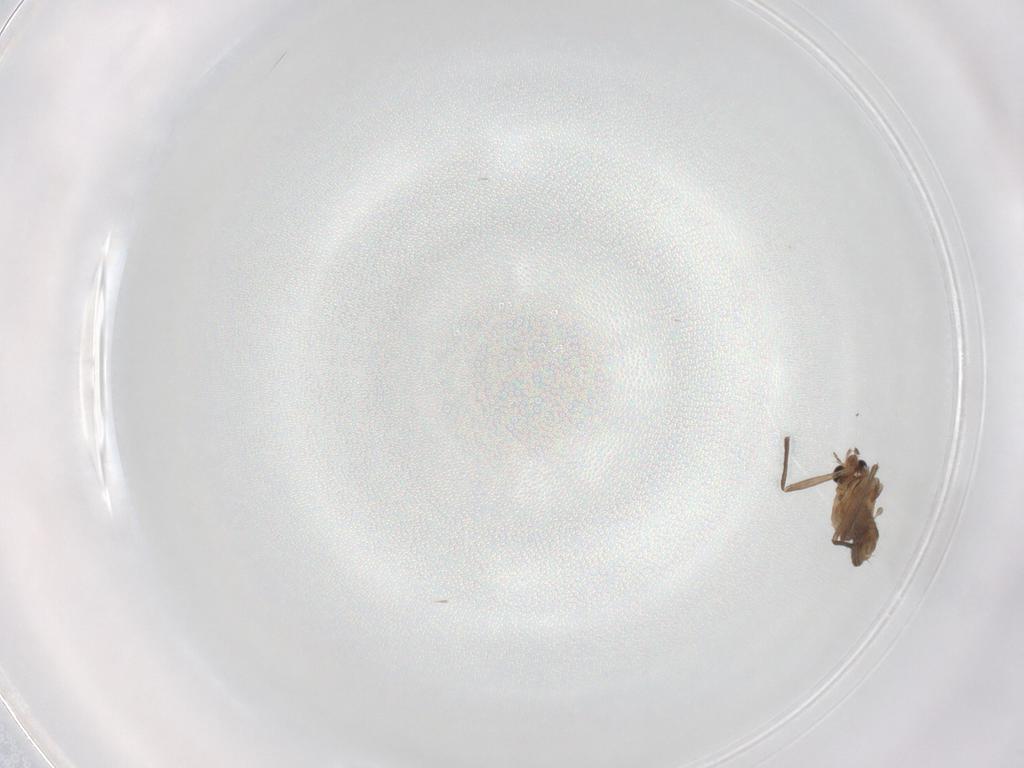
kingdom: Animalia
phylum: Arthropoda
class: Insecta
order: Diptera
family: Chironomidae
